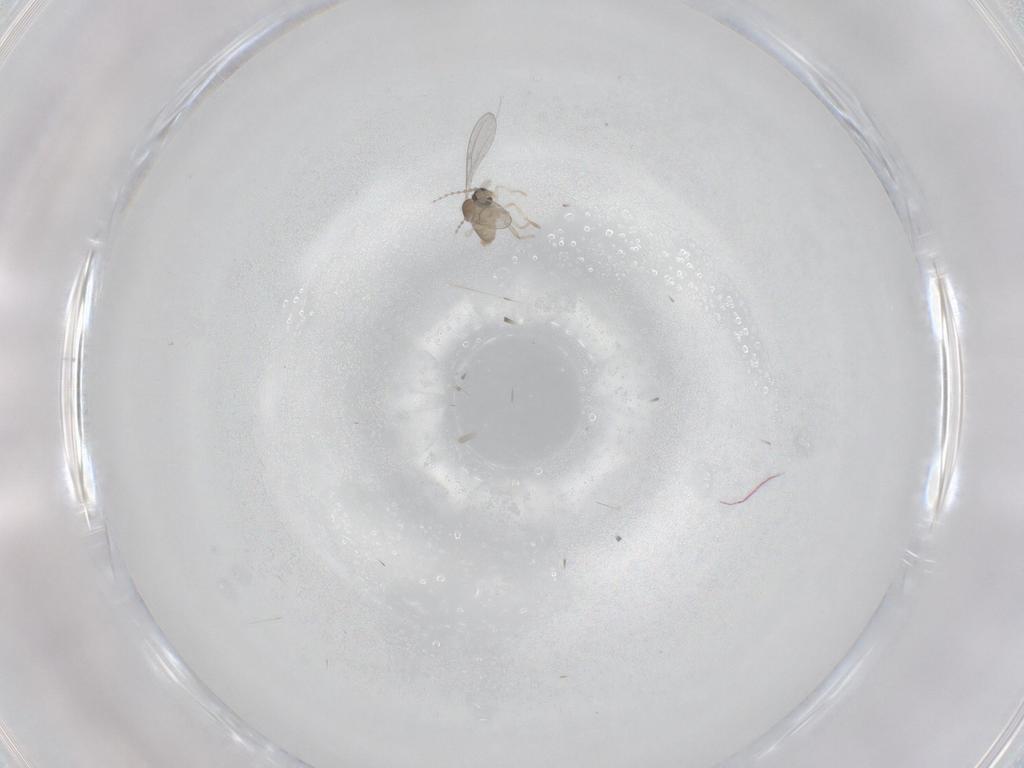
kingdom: Animalia
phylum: Arthropoda
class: Insecta
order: Diptera
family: Cecidomyiidae
